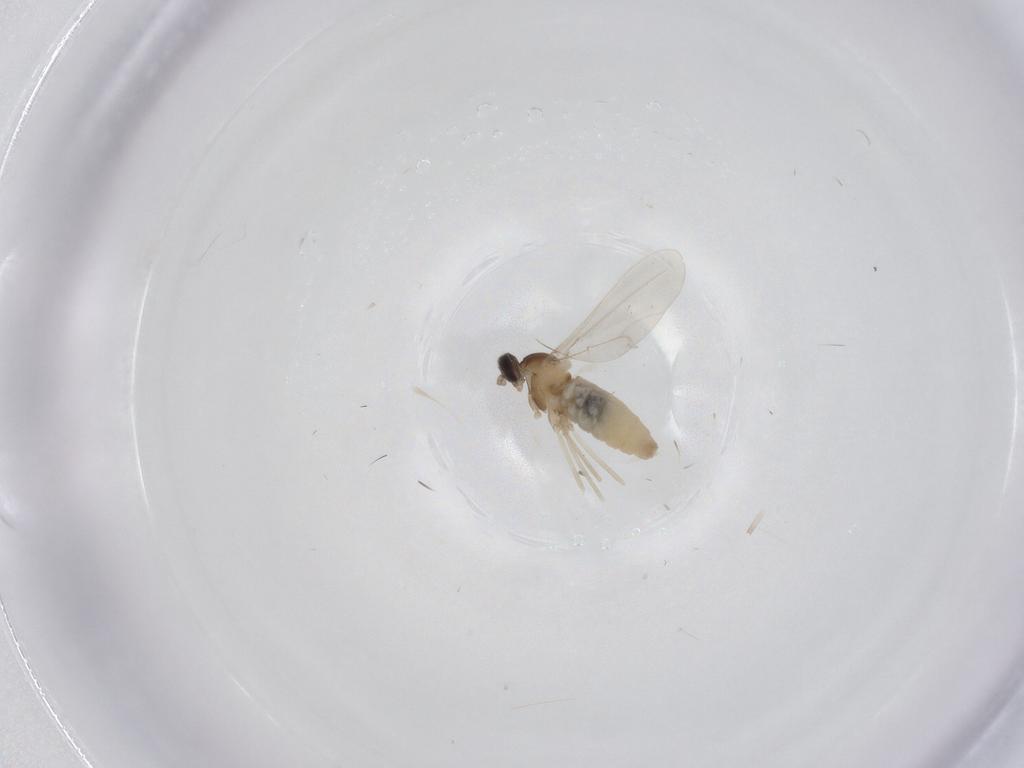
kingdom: Animalia
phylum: Arthropoda
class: Insecta
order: Diptera
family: Cecidomyiidae
